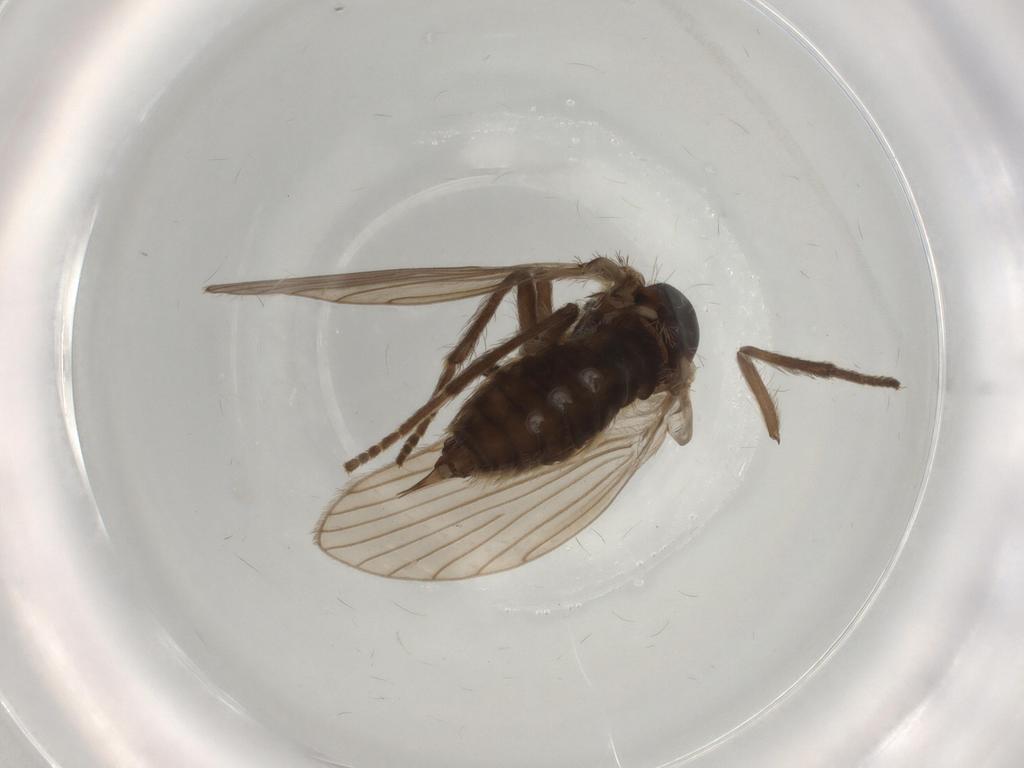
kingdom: Animalia
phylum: Arthropoda
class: Insecta
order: Diptera
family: Psychodidae
